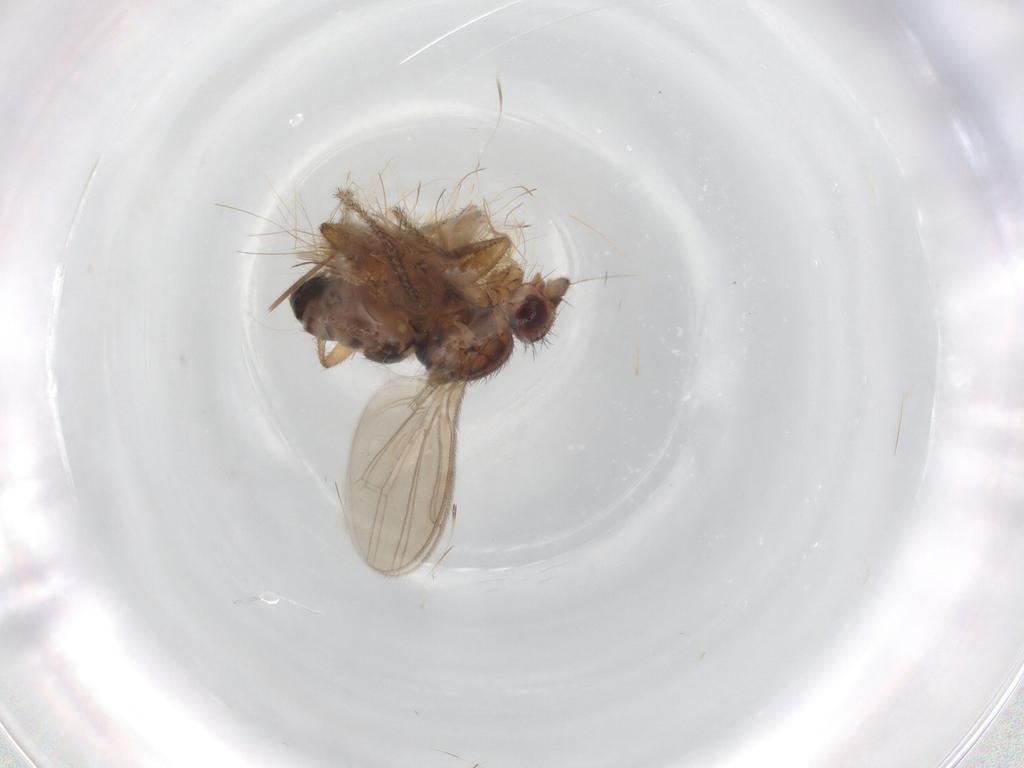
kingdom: Animalia
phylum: Arthropoda
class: Insecta
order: Diptera
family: Sphaeroceridae
